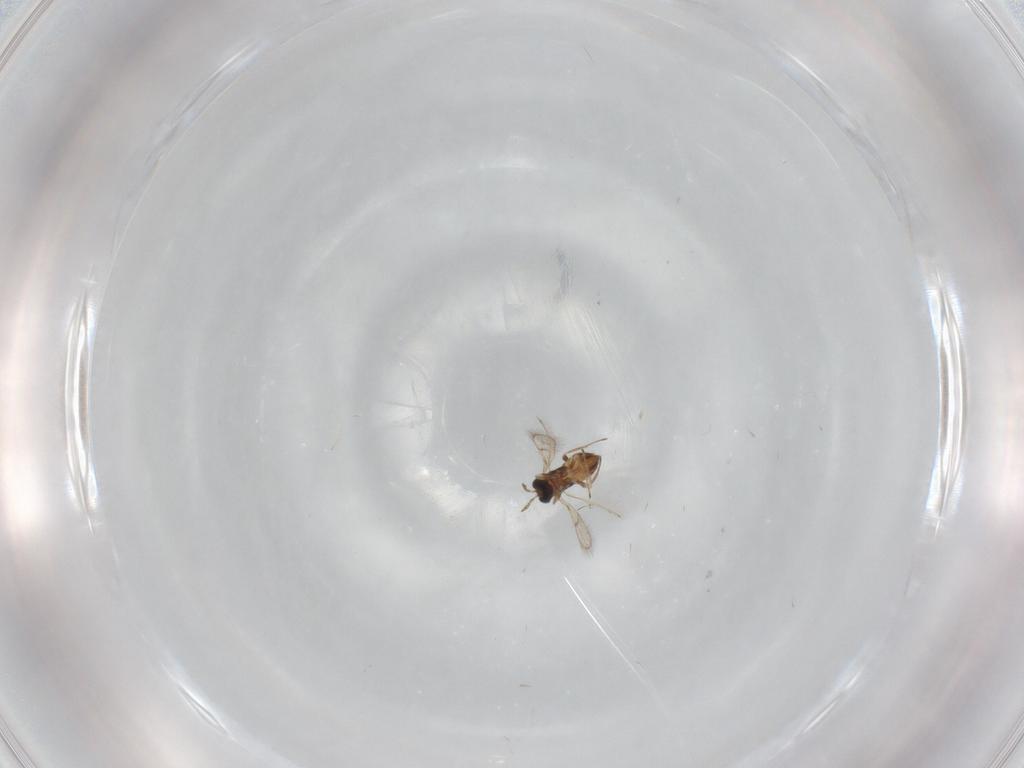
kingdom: Animalia
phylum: Arthropoda
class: Insecta
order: Hymenoptera
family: Trichogrammatidae
